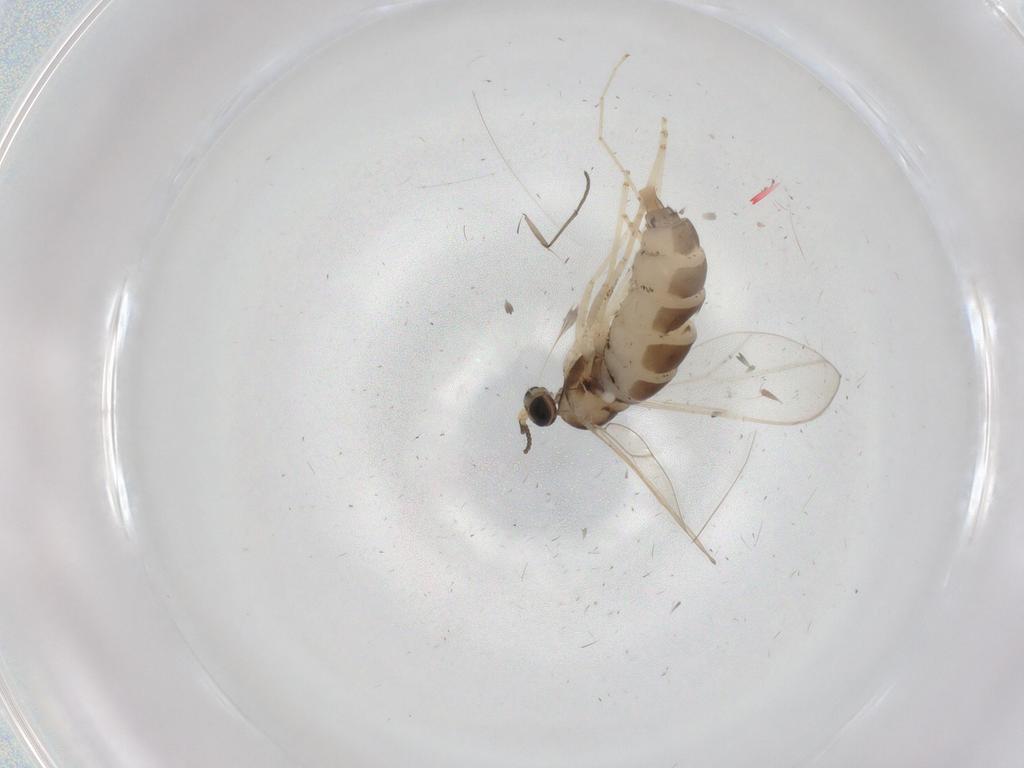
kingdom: Animalia
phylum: Arthropoda
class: Insecta
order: Diptera
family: Cecidomyiidae
